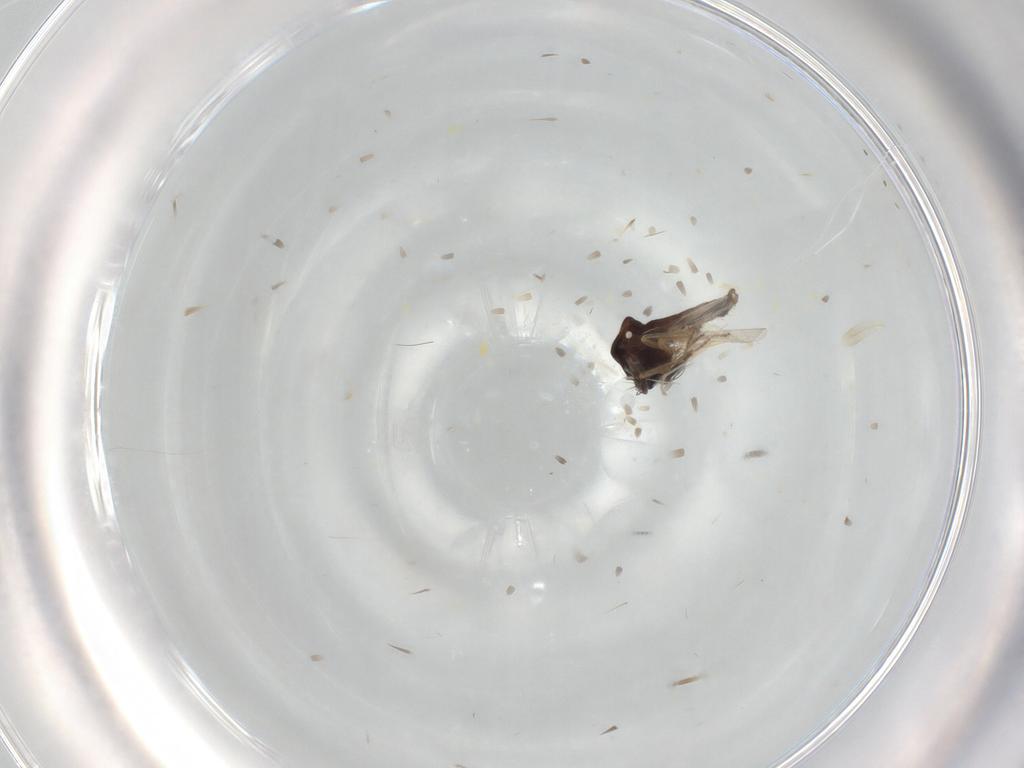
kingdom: Animalia
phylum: Arthropoda
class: Insecta
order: Diptera
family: Ceratopogonidae
